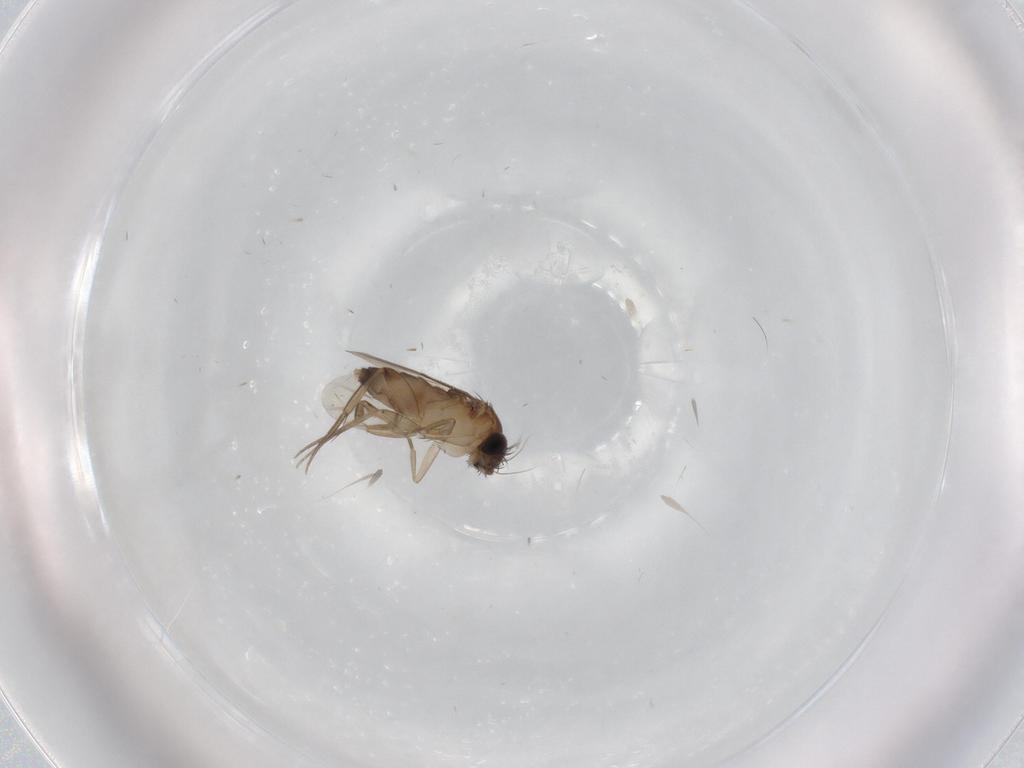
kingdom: Animalia
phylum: Arthropoda
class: Insecta
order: Diptera
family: Phoridae
